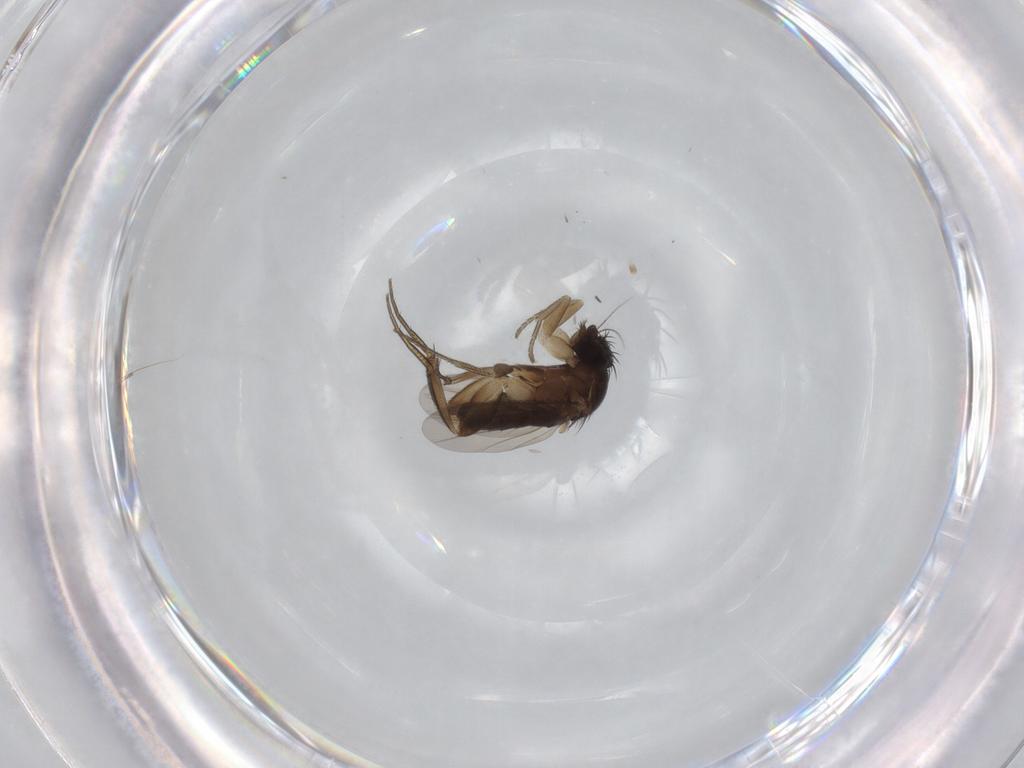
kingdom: Animalia
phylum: Arthropoda
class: Insecta
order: Diptera
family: Phoridae
